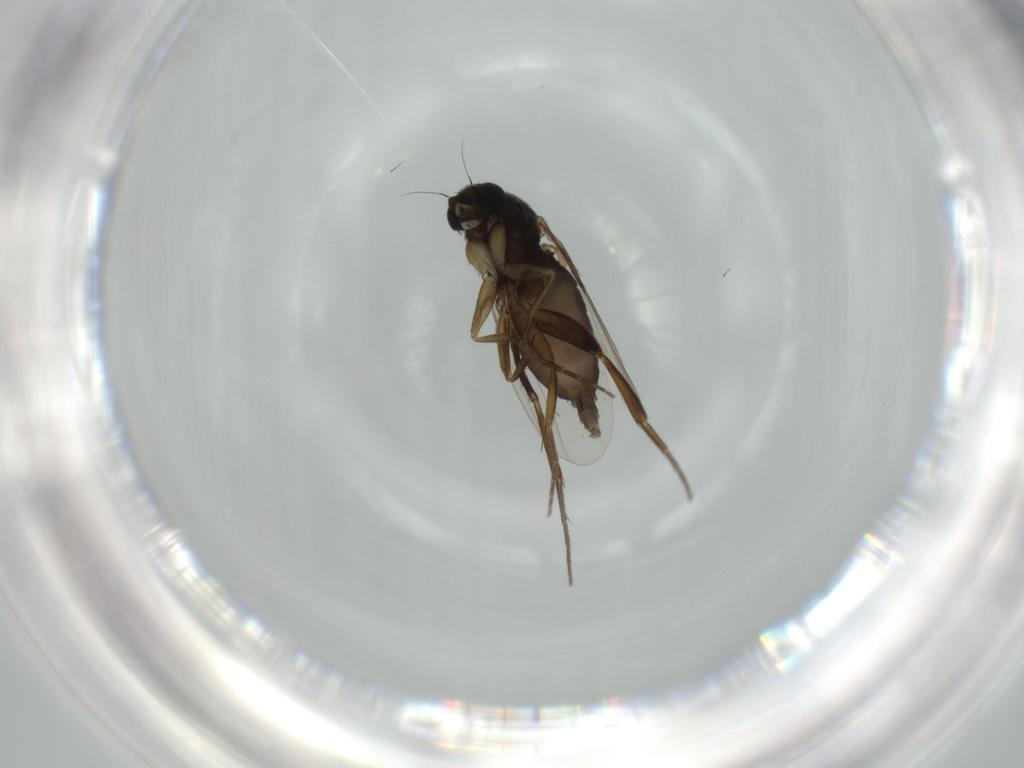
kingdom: Animalia
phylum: Arthropoda
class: Insecta
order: Diptera
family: Phoridae
